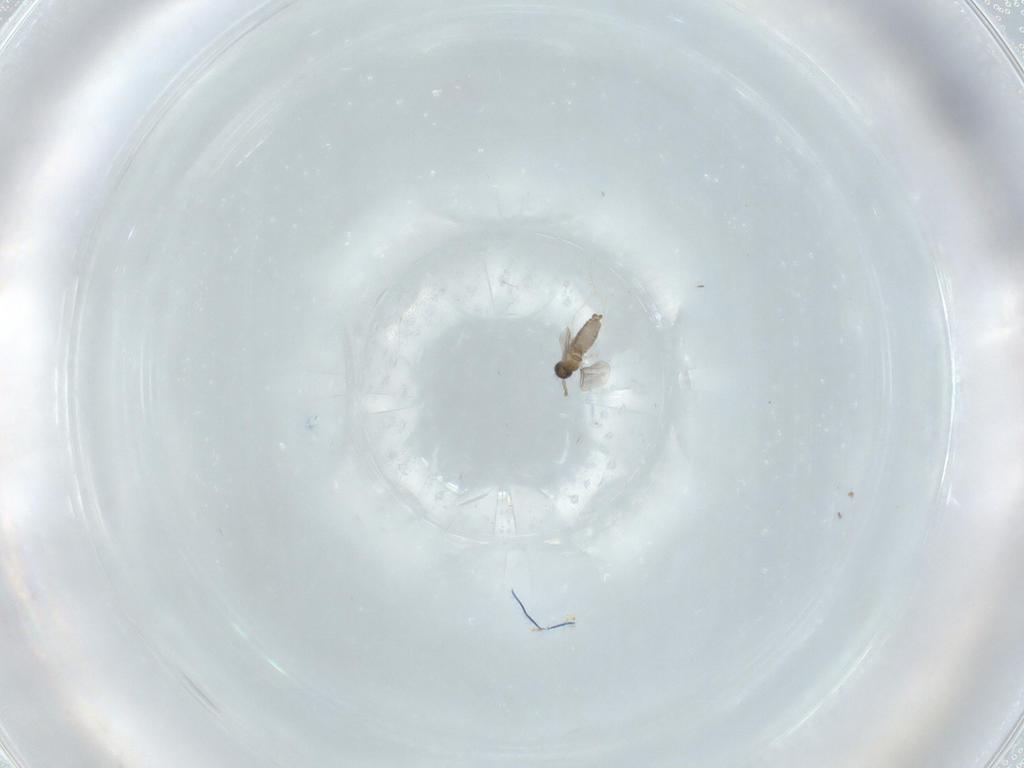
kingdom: Animalia
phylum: Arthropoda
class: Insecta
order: Diptera
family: Cecidomyiidae
